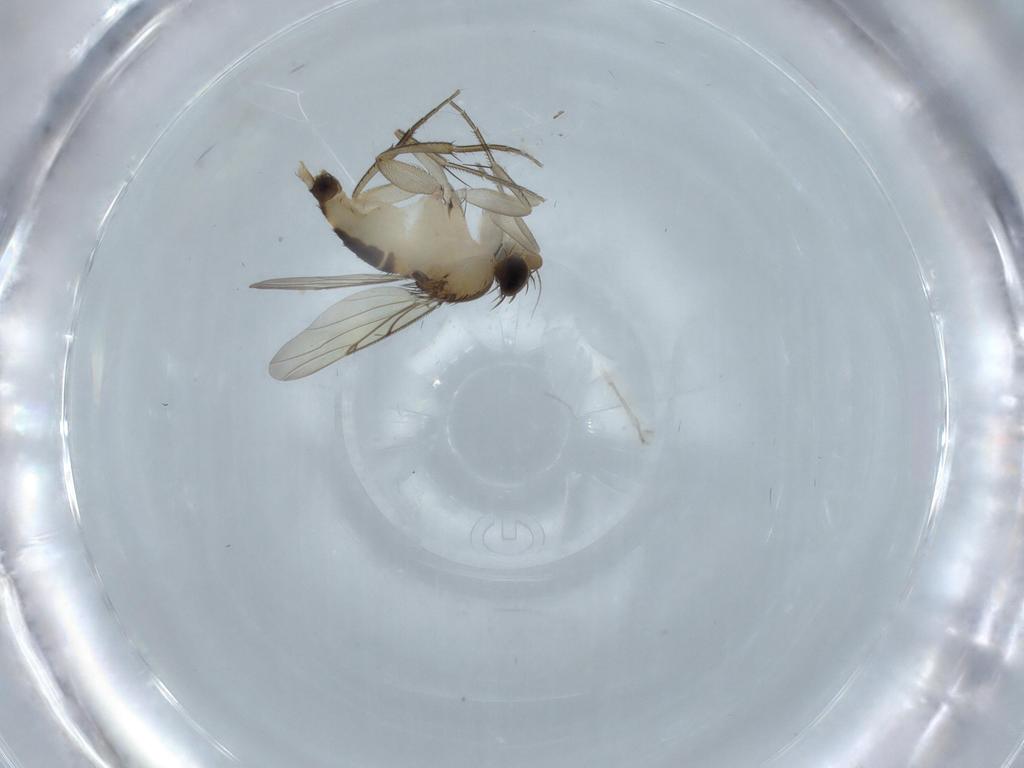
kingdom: Animalia
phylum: Arthropoda
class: Insecta
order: Diptera
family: Phoridae
